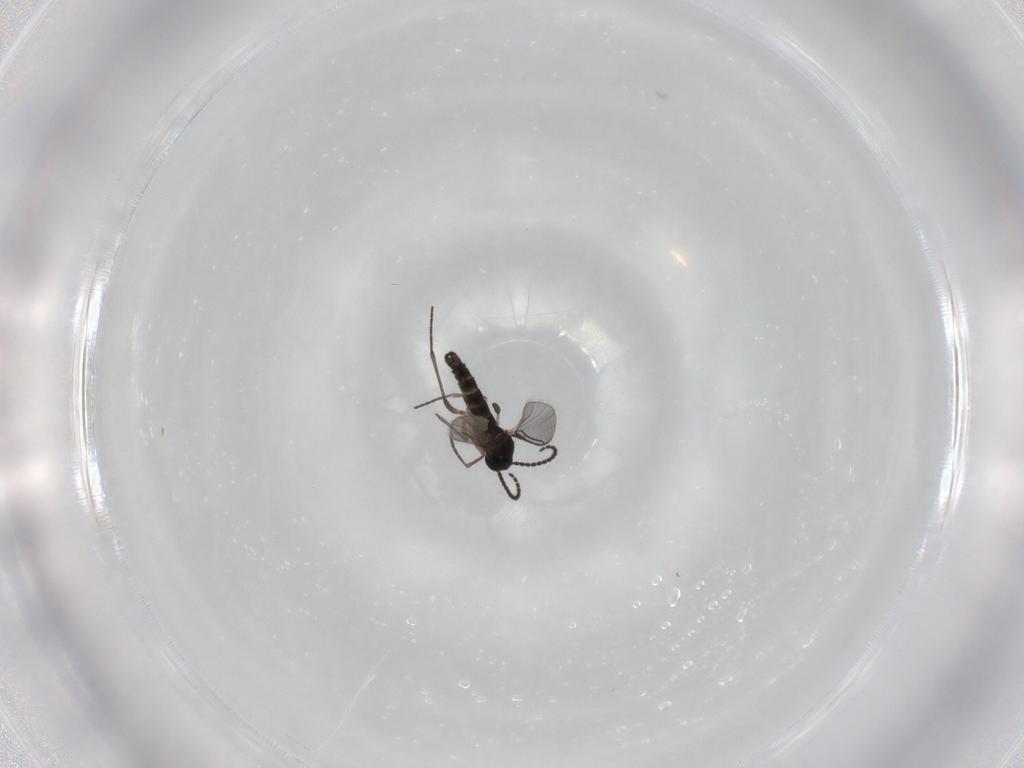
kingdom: Animalia
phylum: Arthropoda
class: Insecta
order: Diptera
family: Sciaridae
